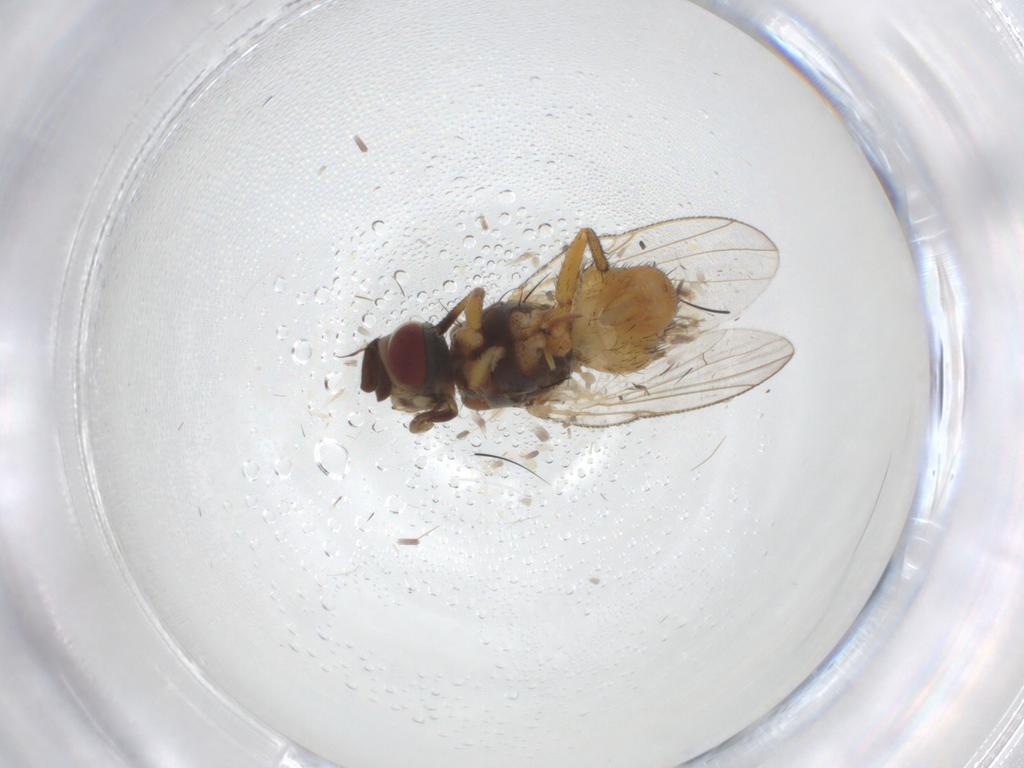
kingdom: Animalia
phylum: Arthropoda
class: Insecta
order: Diptera
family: Muscidae
